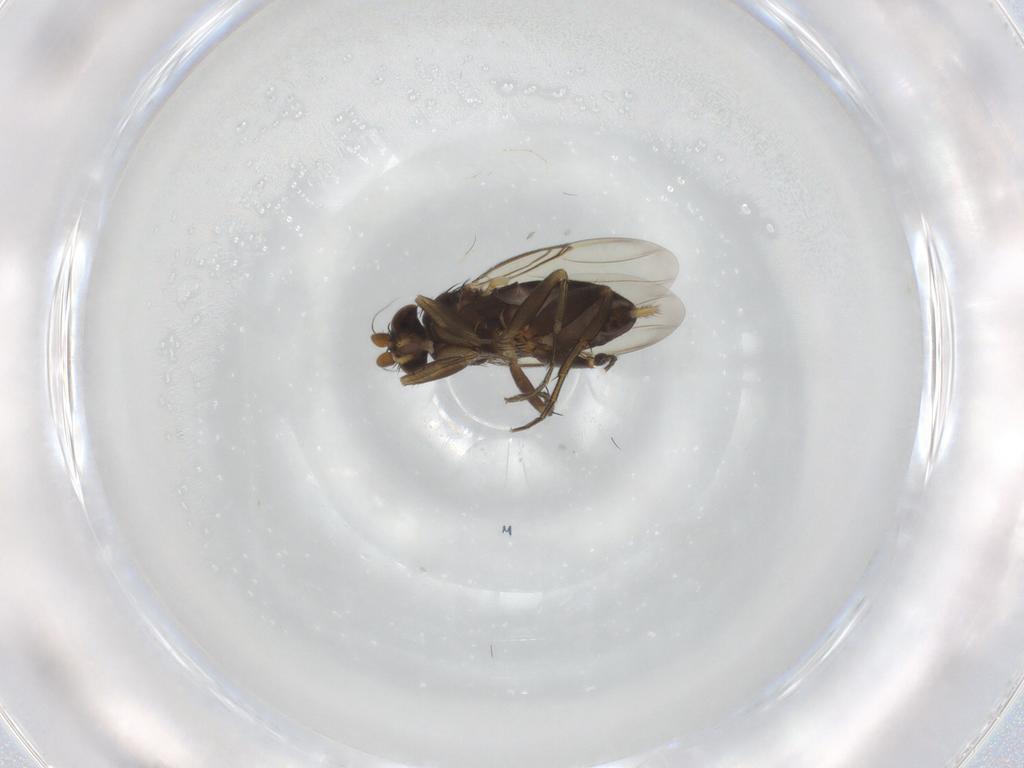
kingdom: Animalia
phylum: Arthropoda
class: Insecta
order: Diptera
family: Phoridae
